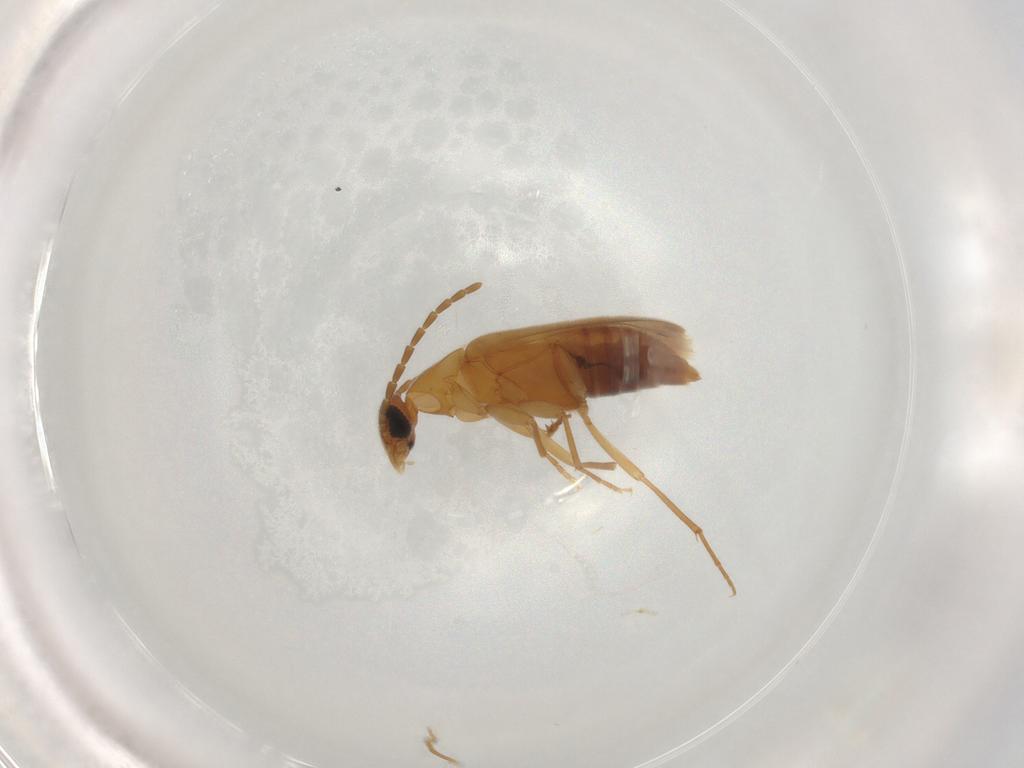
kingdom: Animalia
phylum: Arthropoda
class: Insecta
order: Coleoptera
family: Scraptiidae
